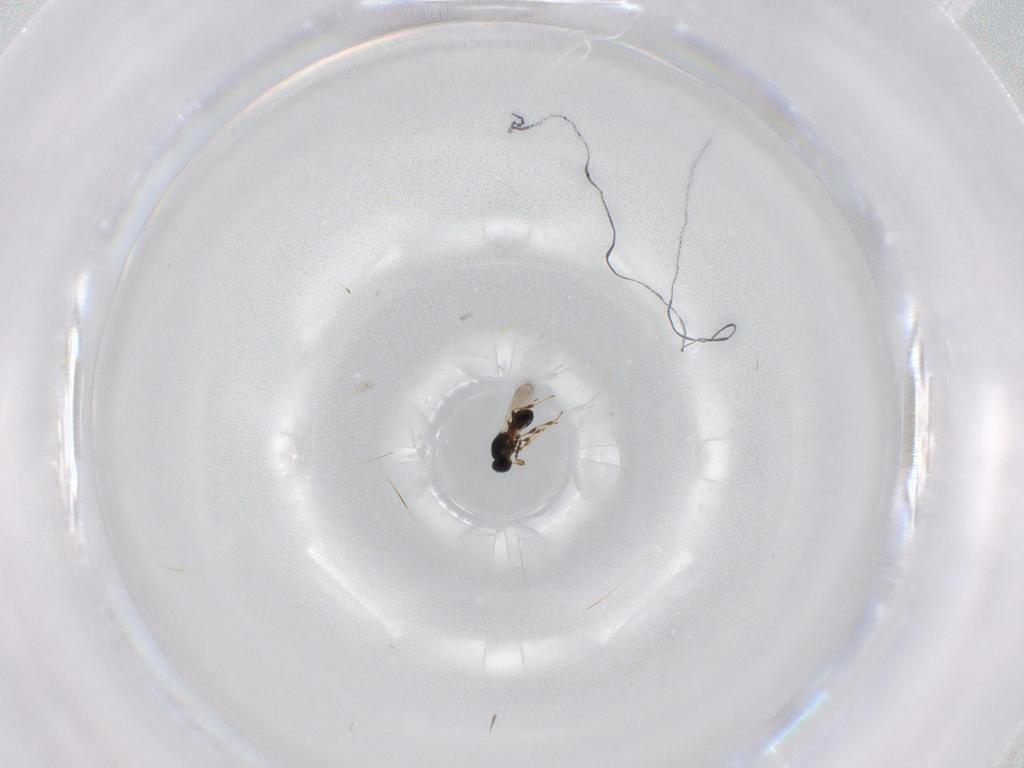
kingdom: Animalia
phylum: Arthropoda
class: Insecta
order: Hymenoptera
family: Platygastridae
